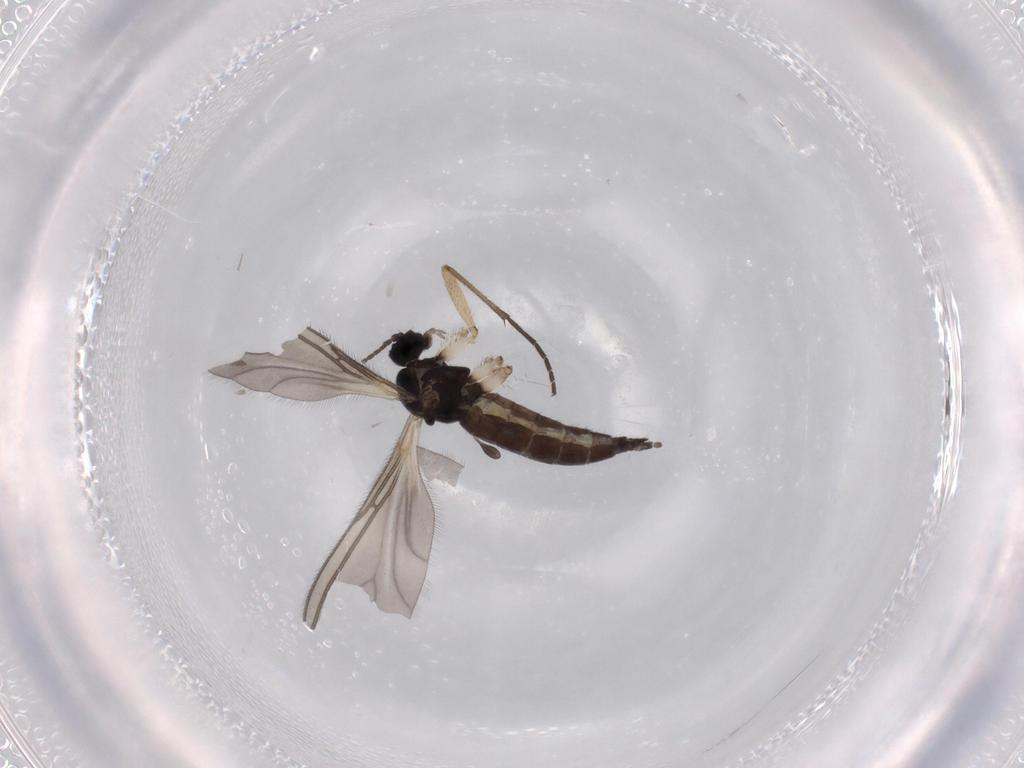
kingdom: Animalia
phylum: Arthropoda
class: Insecta
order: Diptera
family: Sciaridae
